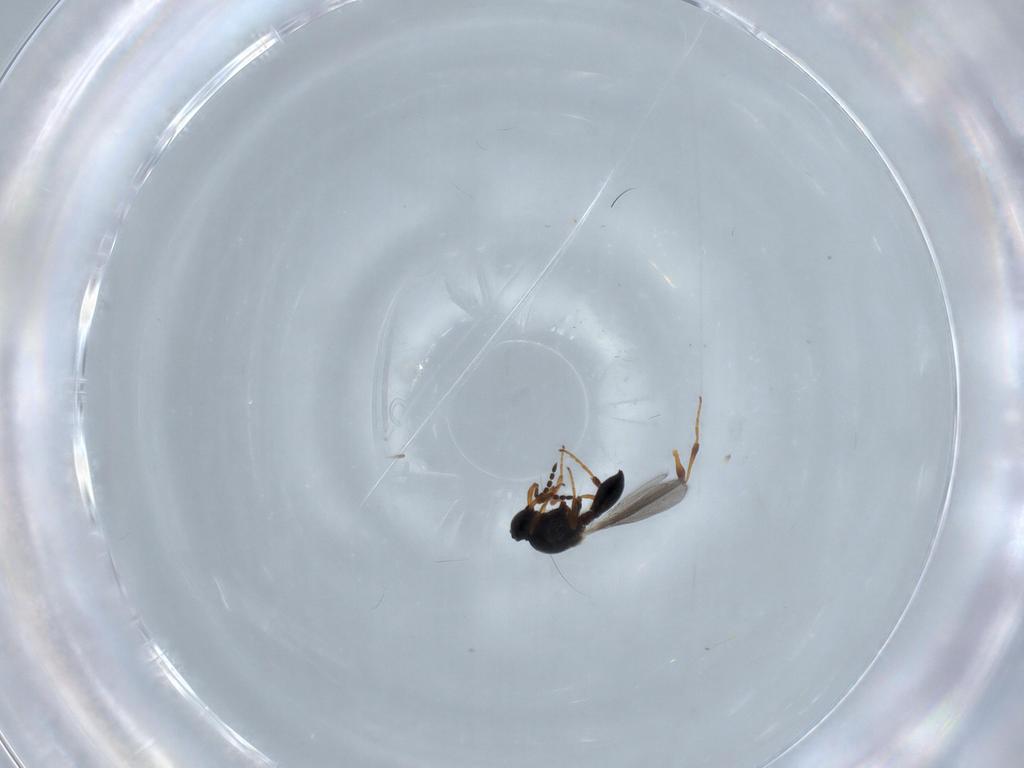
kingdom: Animalia
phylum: Arthropoda
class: Insecta
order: Hymenoptera
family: Platygastridae
